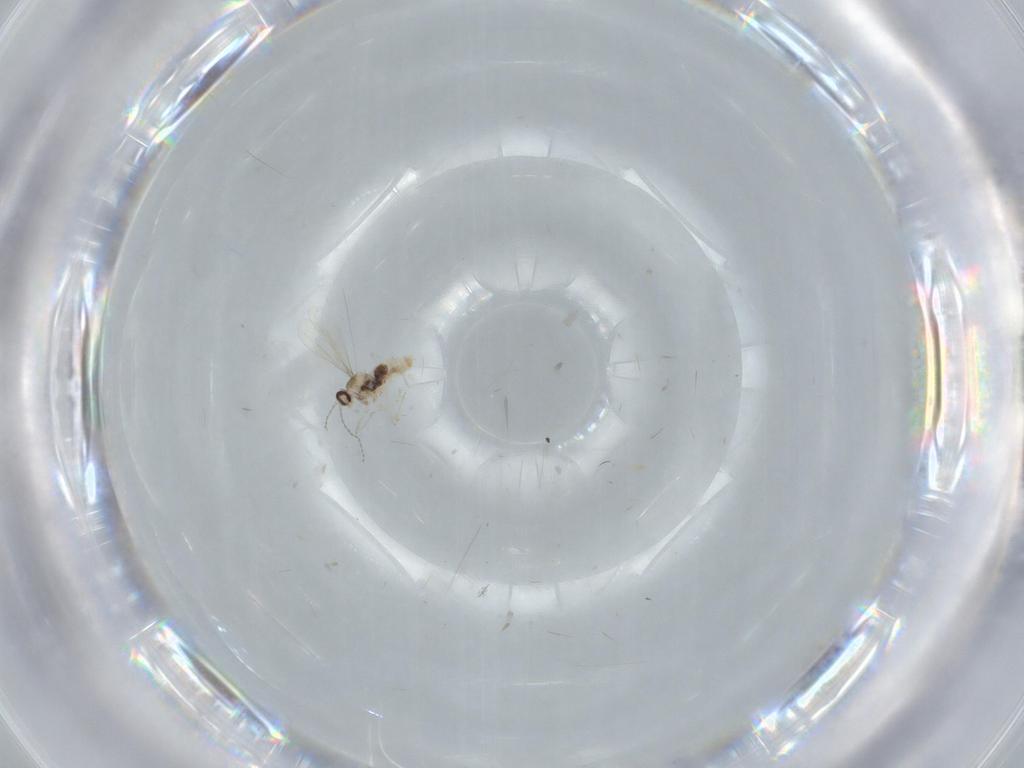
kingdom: Animalia
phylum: Arthropoda
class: Insecta
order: Diptera
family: Cecidomyiidae
